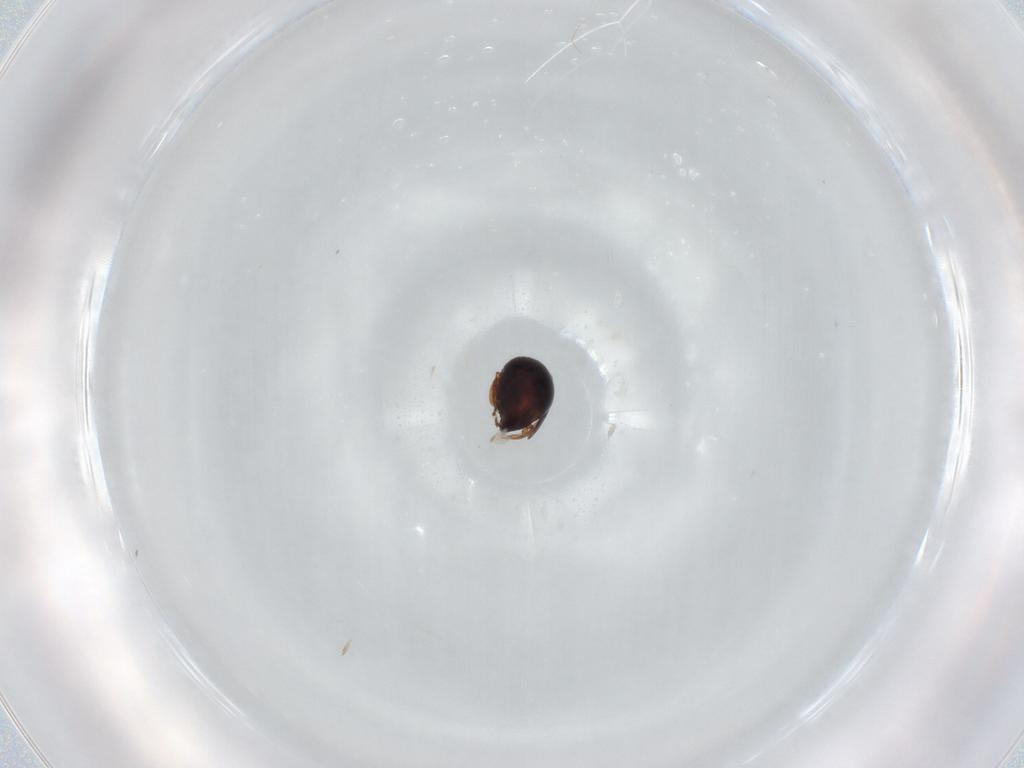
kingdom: Animalia
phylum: Arthropoda
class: Arachnida
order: Sarcoptiformes
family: Ceratozetidae
